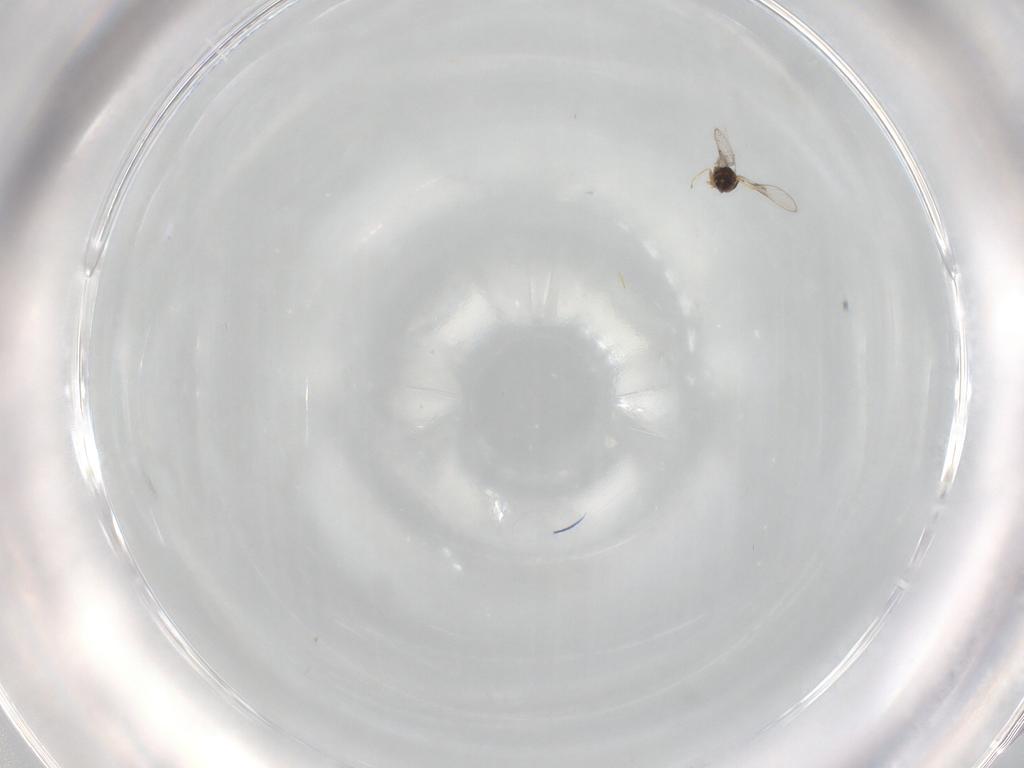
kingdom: Animalia
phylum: Arthropoda
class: Insecta
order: Hymenoptera
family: Trichogrammatidae
